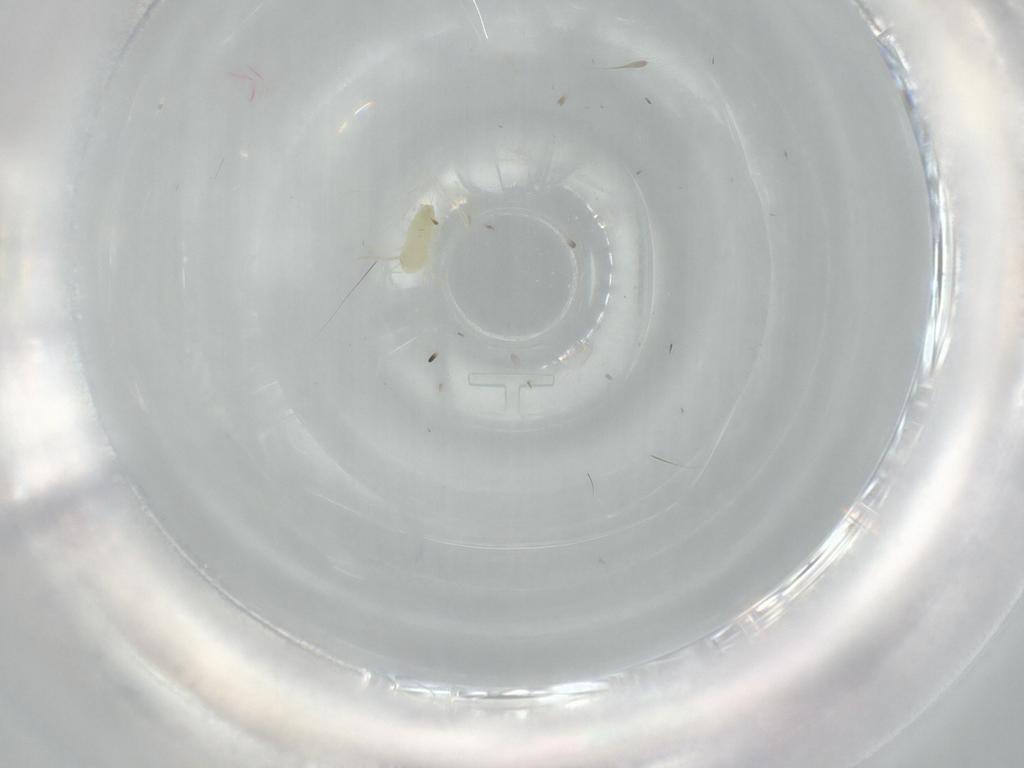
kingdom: Animalia
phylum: Arthropoda
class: Insecta
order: Hemiptera
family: Aleyrodidae
